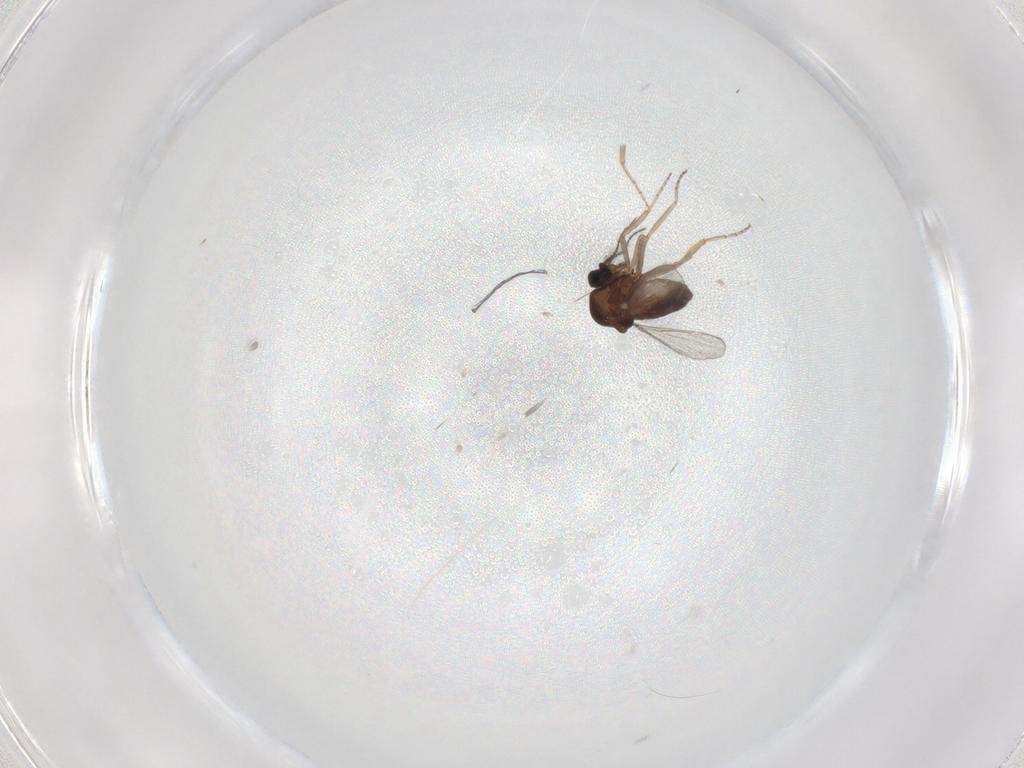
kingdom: Animalia
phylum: Arthropoda
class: Insecta
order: Diptera
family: Ceratopogonidae
